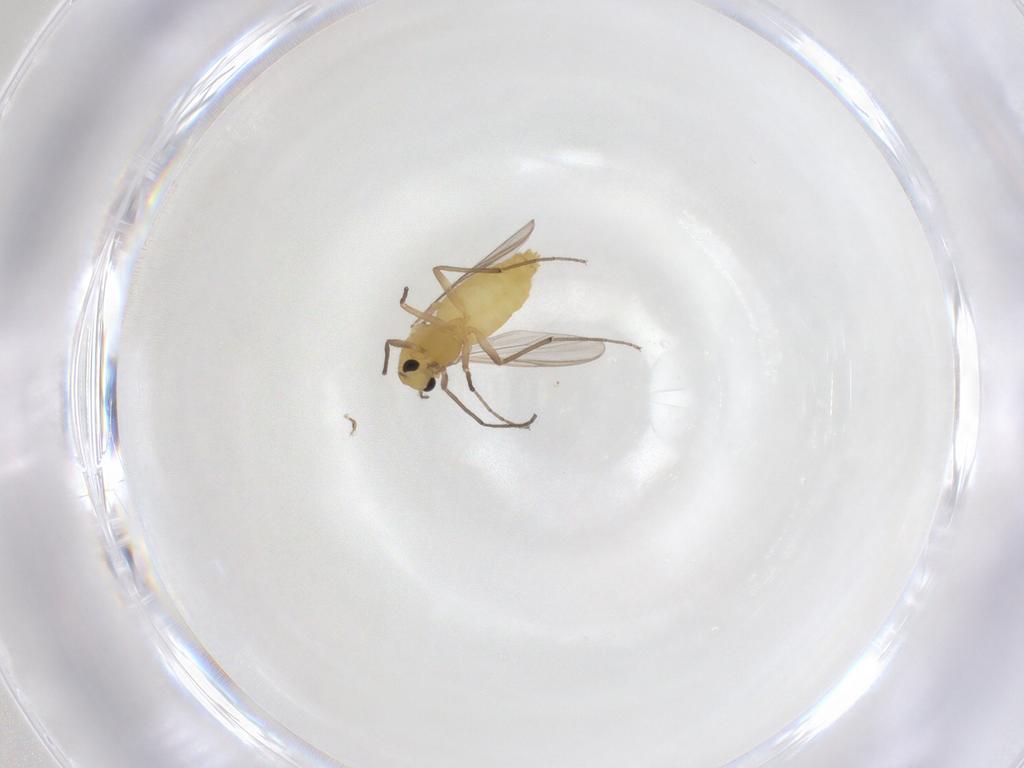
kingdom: Animalia
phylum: Arthropoda
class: Insecta
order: Diptera
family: Chironomidae
